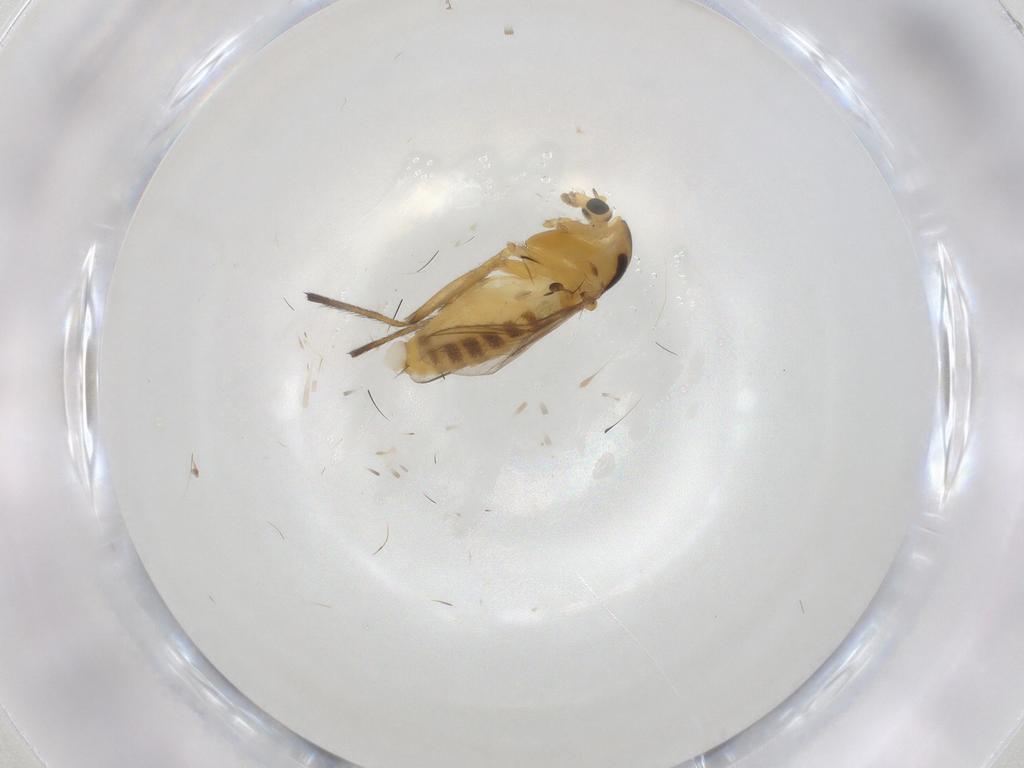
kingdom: Animalia
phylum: Arthropoda
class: Insecta
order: Diptera
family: Chironomidae
